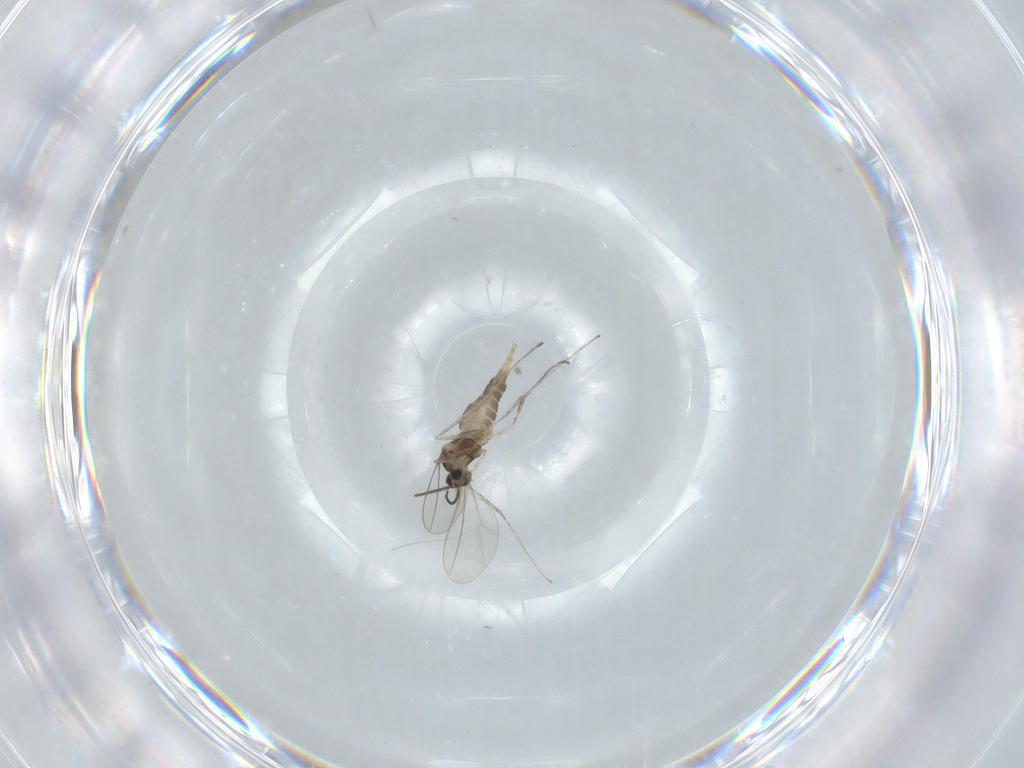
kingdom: Animalia
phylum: Arthropoda
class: Insecta
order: Diptera
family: Cecidomyiidae
